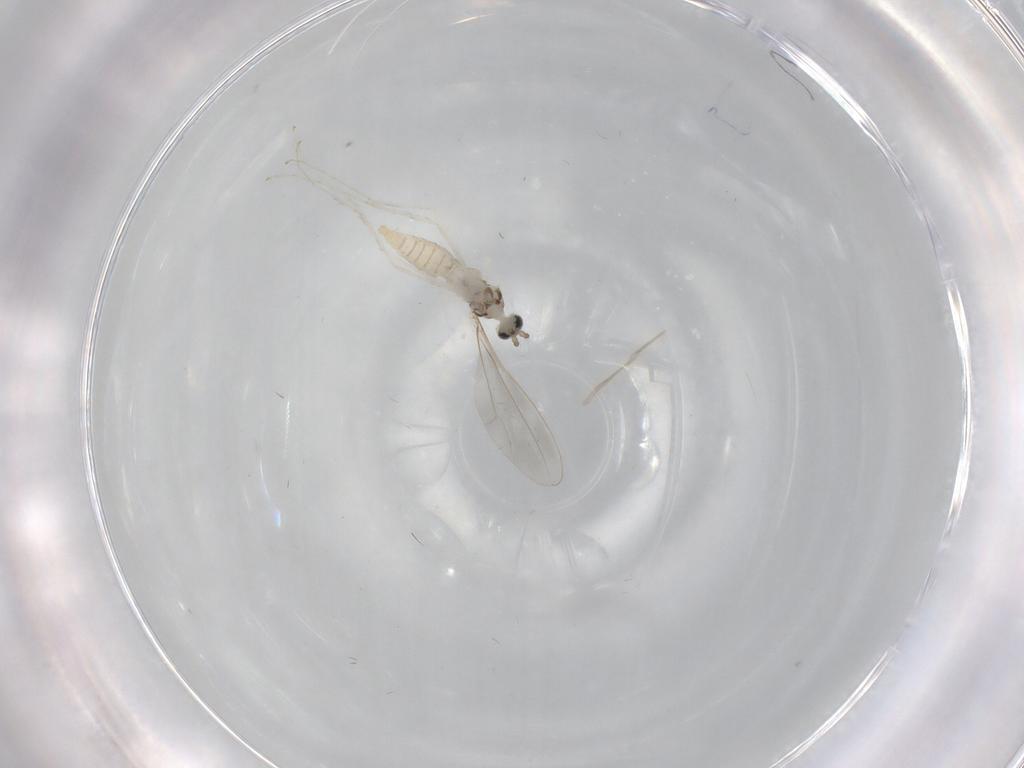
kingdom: Animalia
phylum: Arthropoda
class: Insecta
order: Diptera
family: Cecidomyiidae
